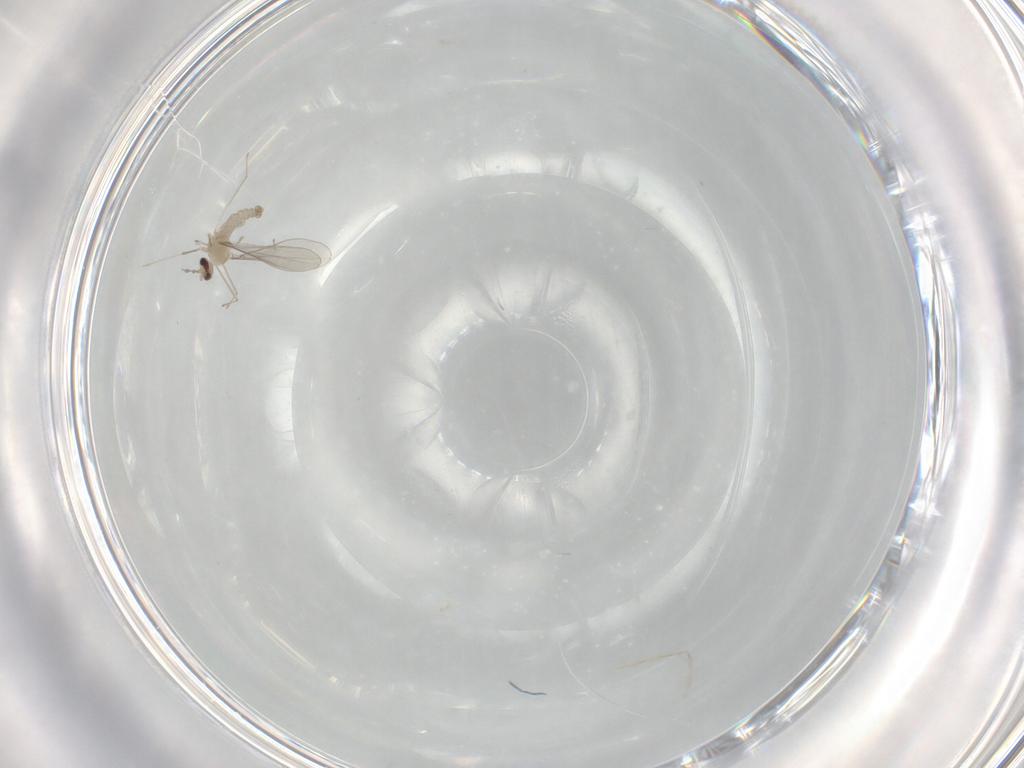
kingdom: Animalia
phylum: Arthropoda
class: Insecta
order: Diptera
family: Cecidomyiidae
